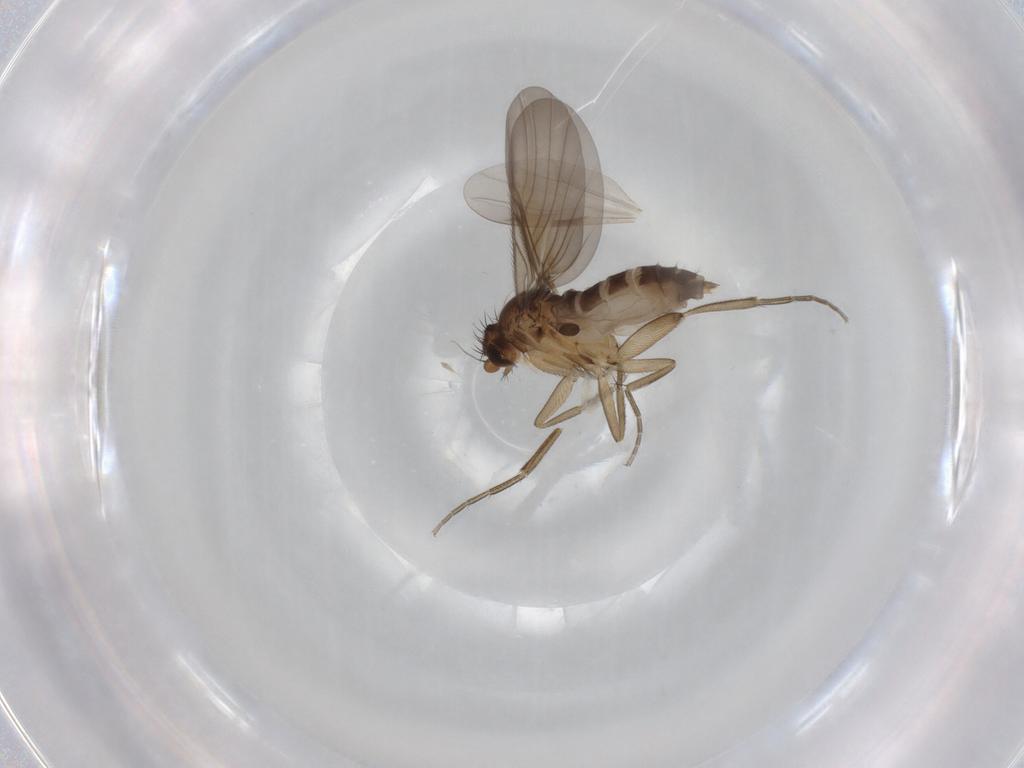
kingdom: Animalia
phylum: Arthropoda
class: Insecta
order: Diptera
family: Phoridae
